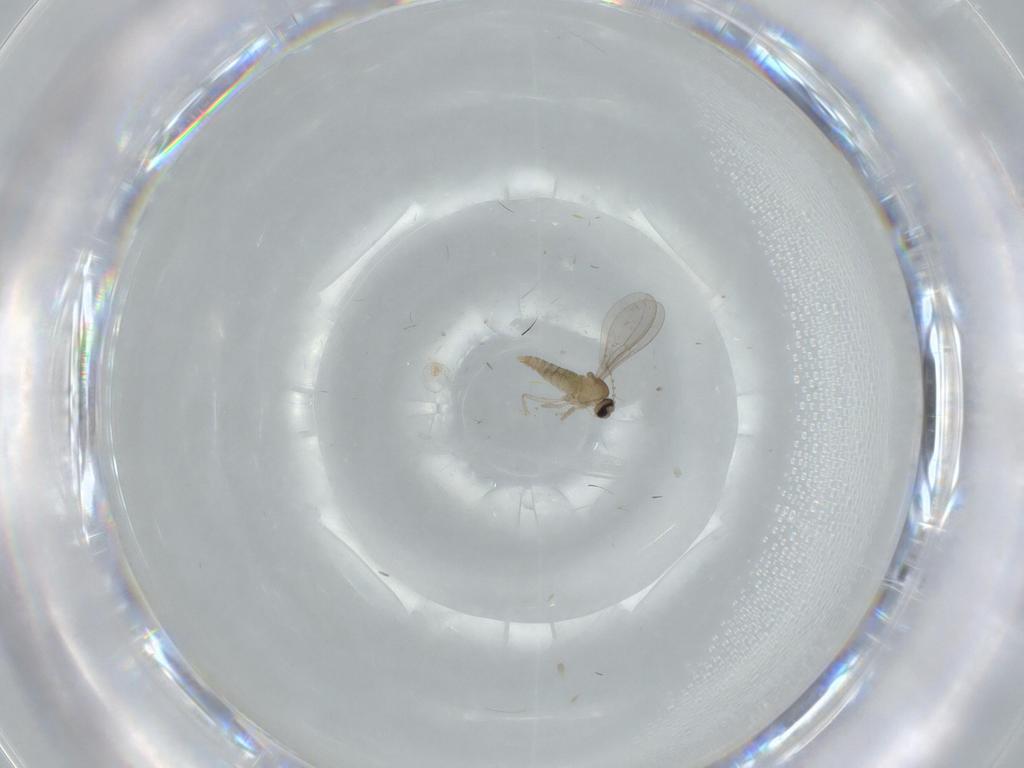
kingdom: Animalia
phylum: Arthropoda
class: Insecta
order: Diptera
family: Cecidomyiidae
